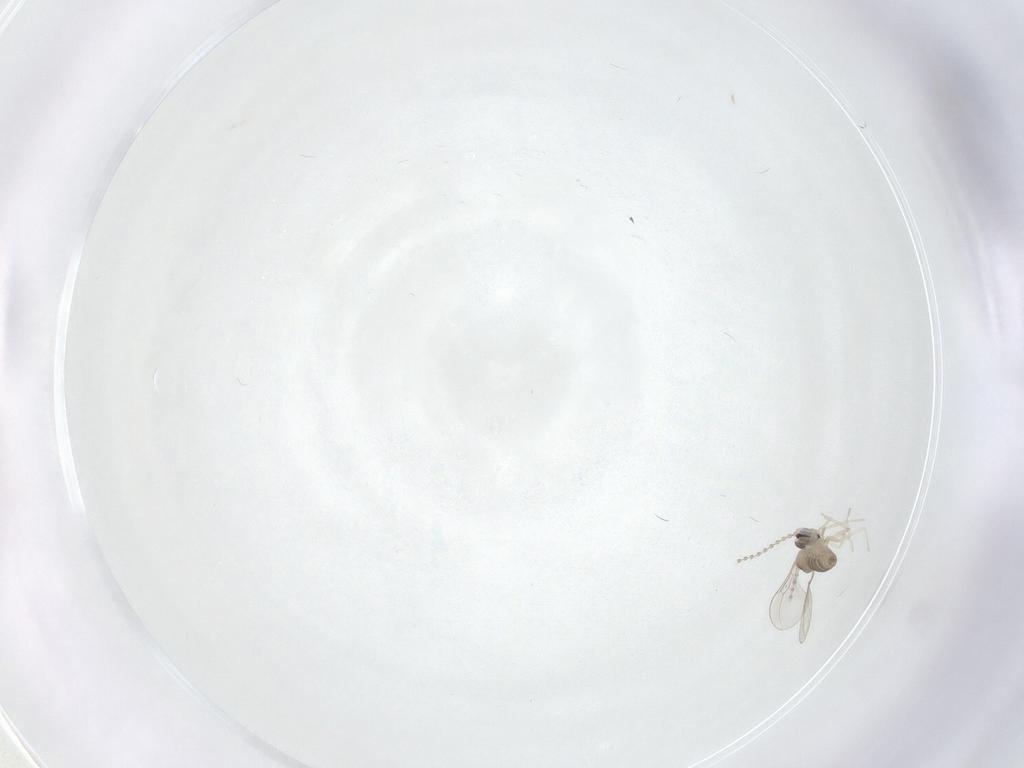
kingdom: Animalia
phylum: Arthropoda
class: Insecta
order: Diptera
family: Cecidomyiidae
